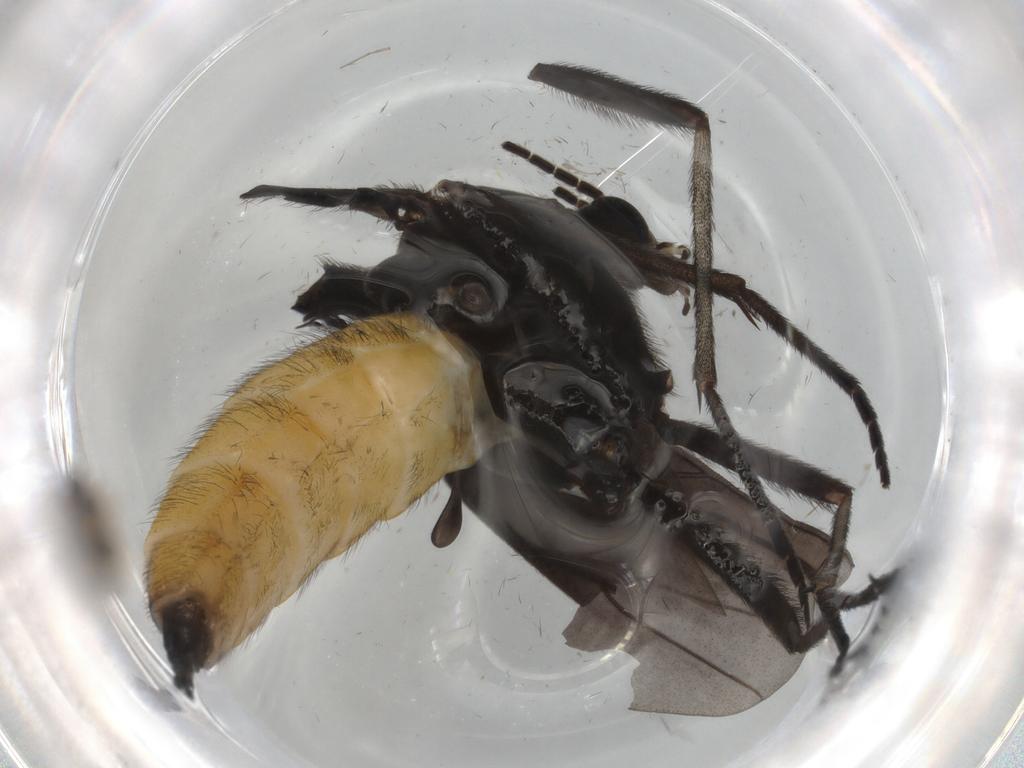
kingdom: Animalia
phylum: Arthropoda
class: Insecta
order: Diptera
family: Sciaridae
